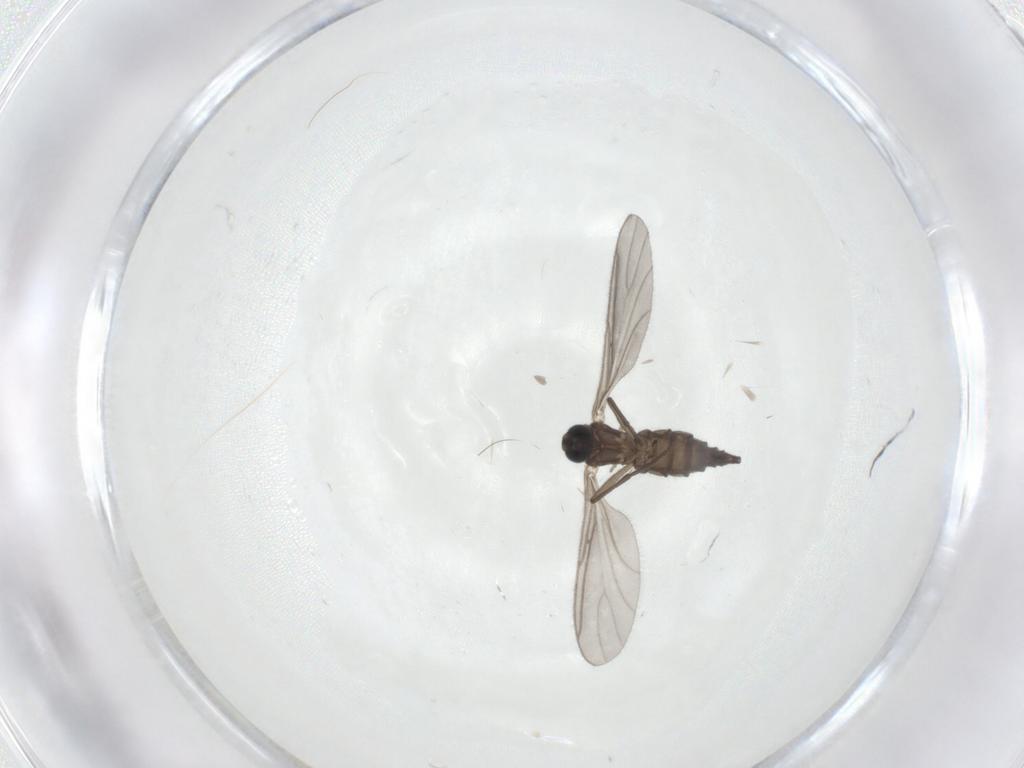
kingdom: Animalia
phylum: Arthropoda
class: Insecta
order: Diptera
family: Sciaridae
